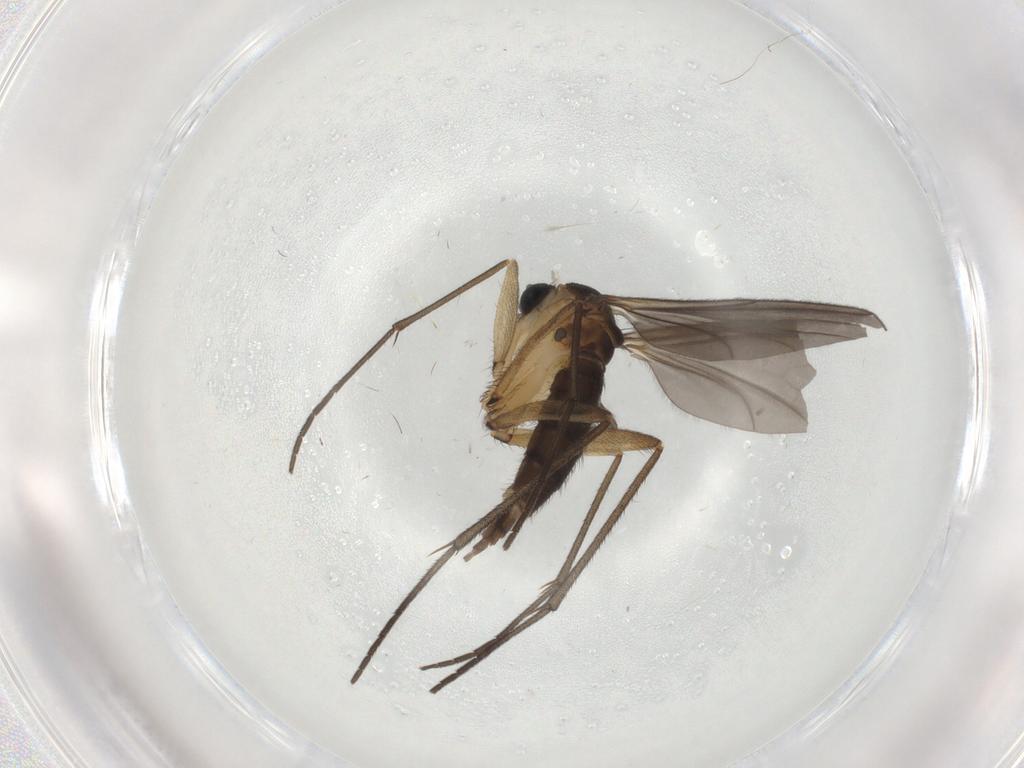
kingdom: Animalia
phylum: Arthropoda
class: Insecta
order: Diptera
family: Sciaridae
